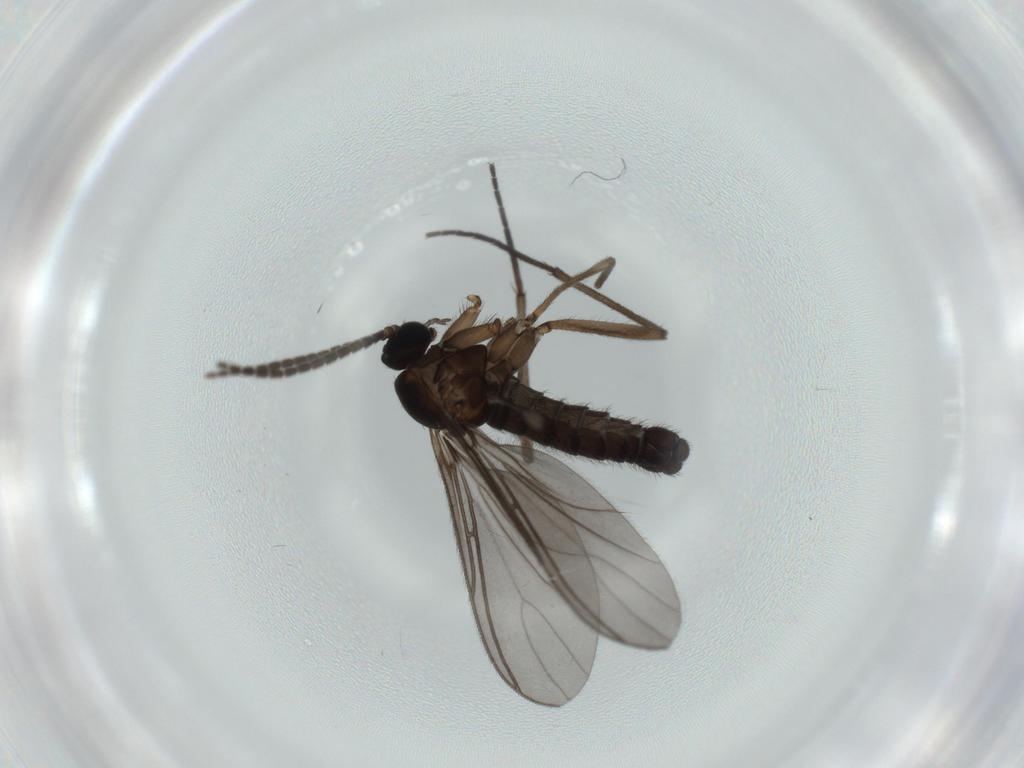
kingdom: Animalia
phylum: Arthropoda
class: Insecta
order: Diptera
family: Sciaridae
